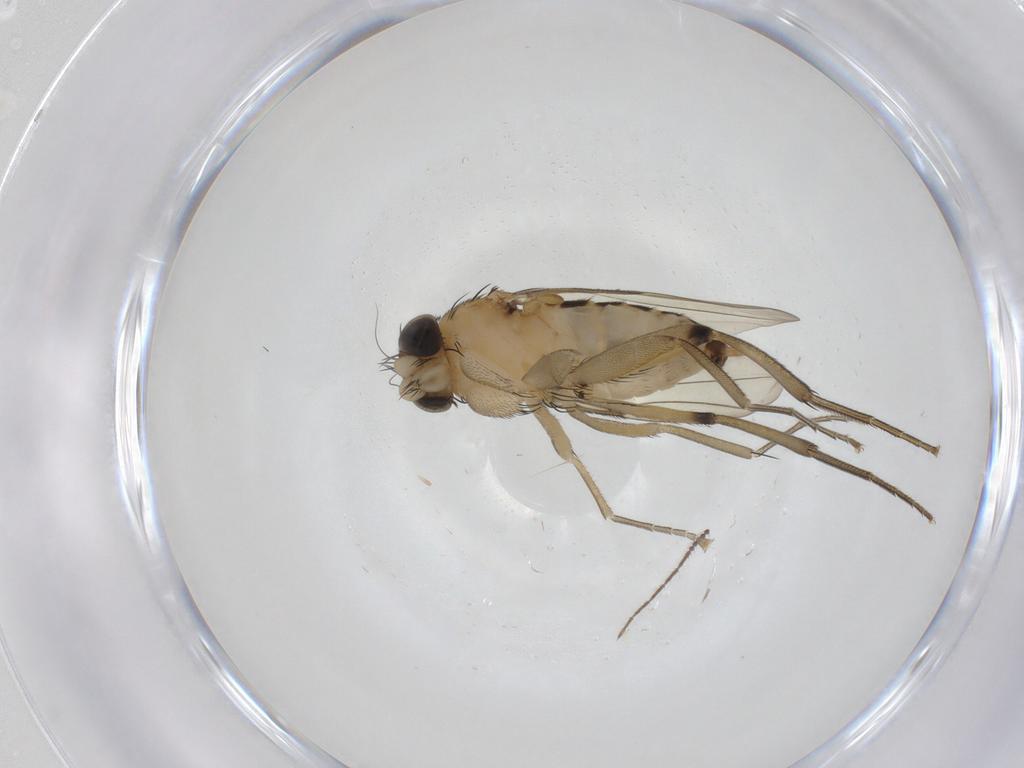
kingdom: Animalia
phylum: Arthropoda
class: Insecta
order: Diptera
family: Phoridae
